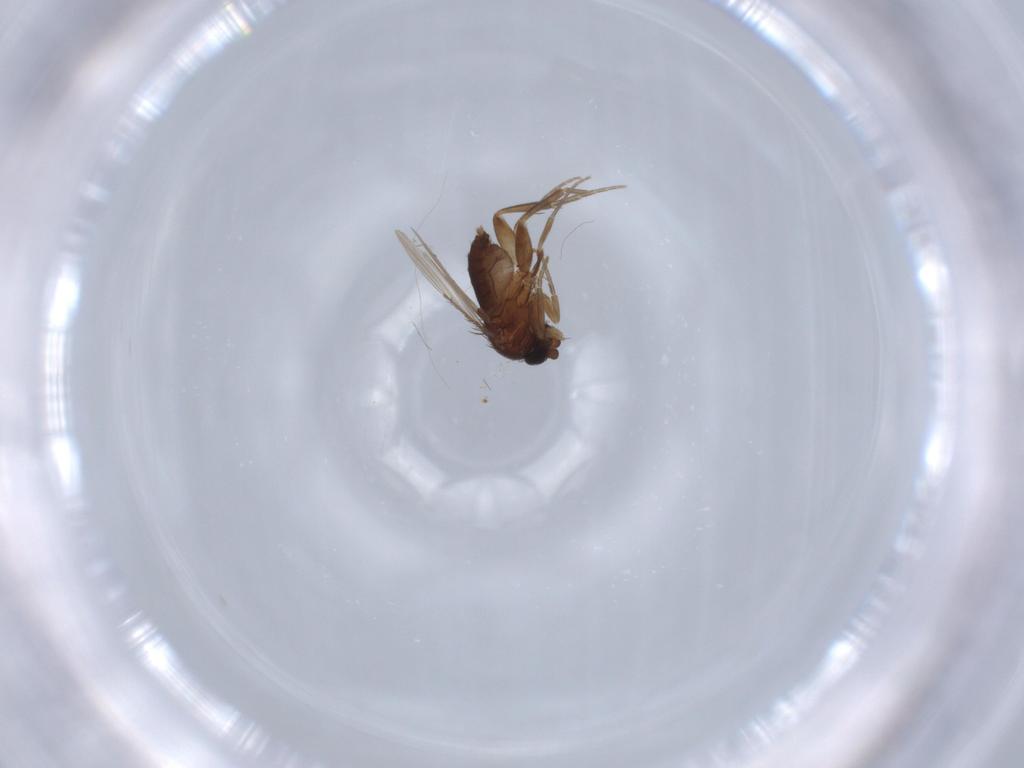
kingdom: Animalia
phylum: Arthropoda
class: Insecta
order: Diptera
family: Phoridae
